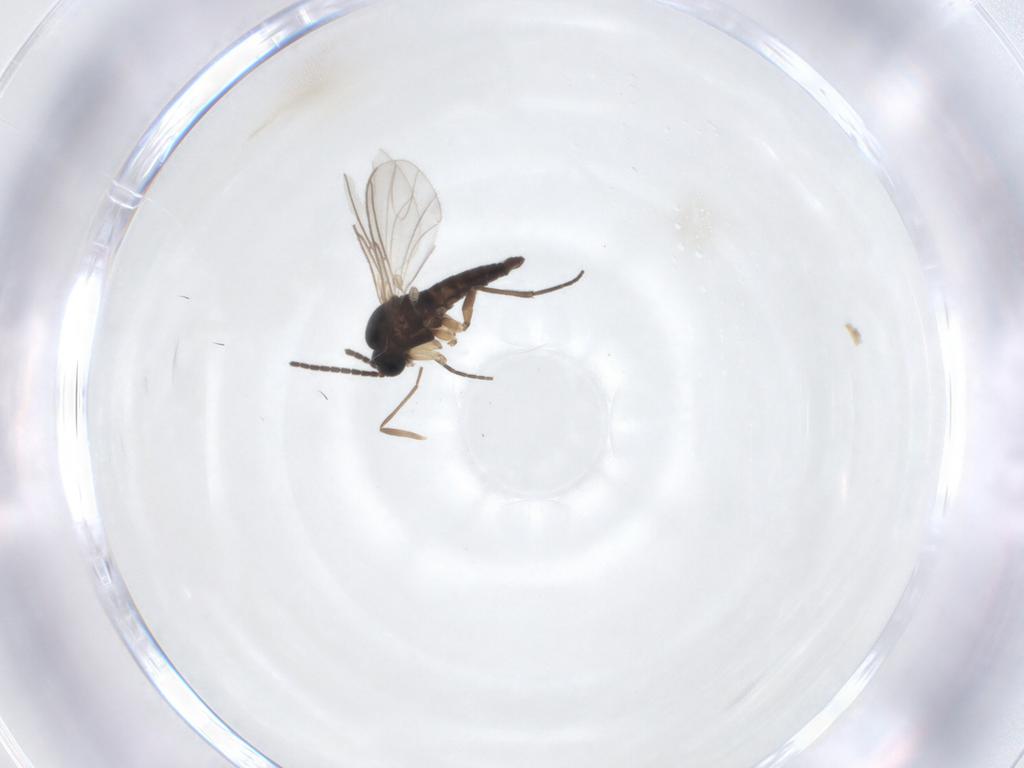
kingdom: Animalia
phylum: Arthropoda
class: Insecta
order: Diptera
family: Sciaridae
